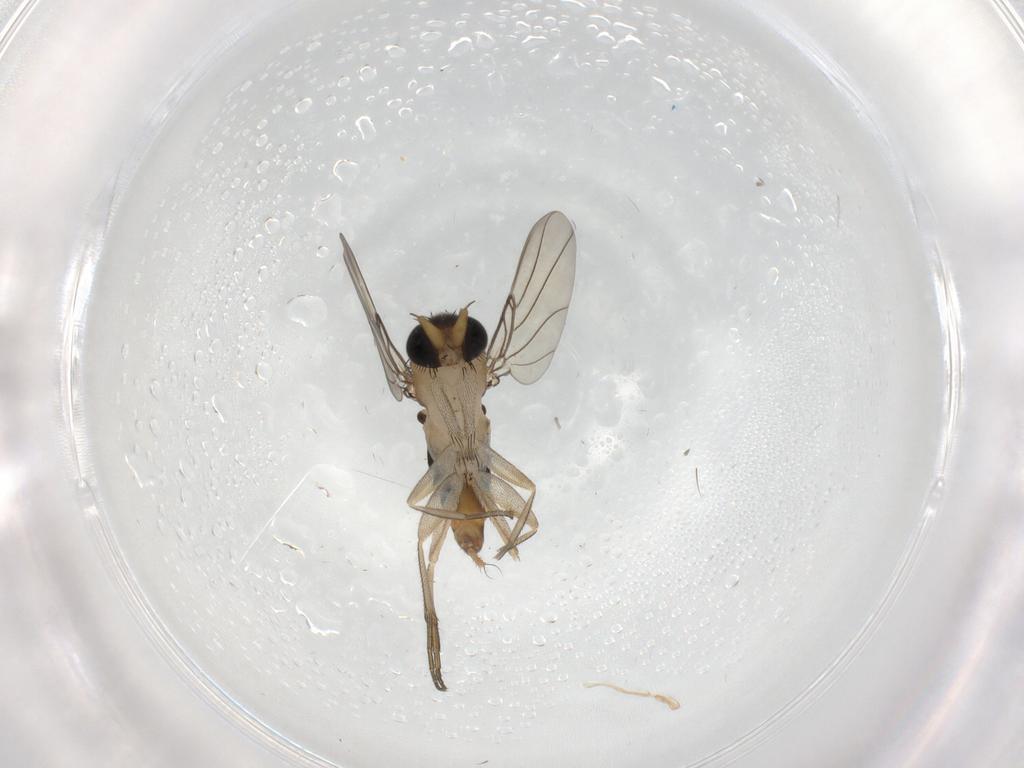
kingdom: Animalia
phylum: Arthropoda
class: Insecta
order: Diptera
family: Phoridae
